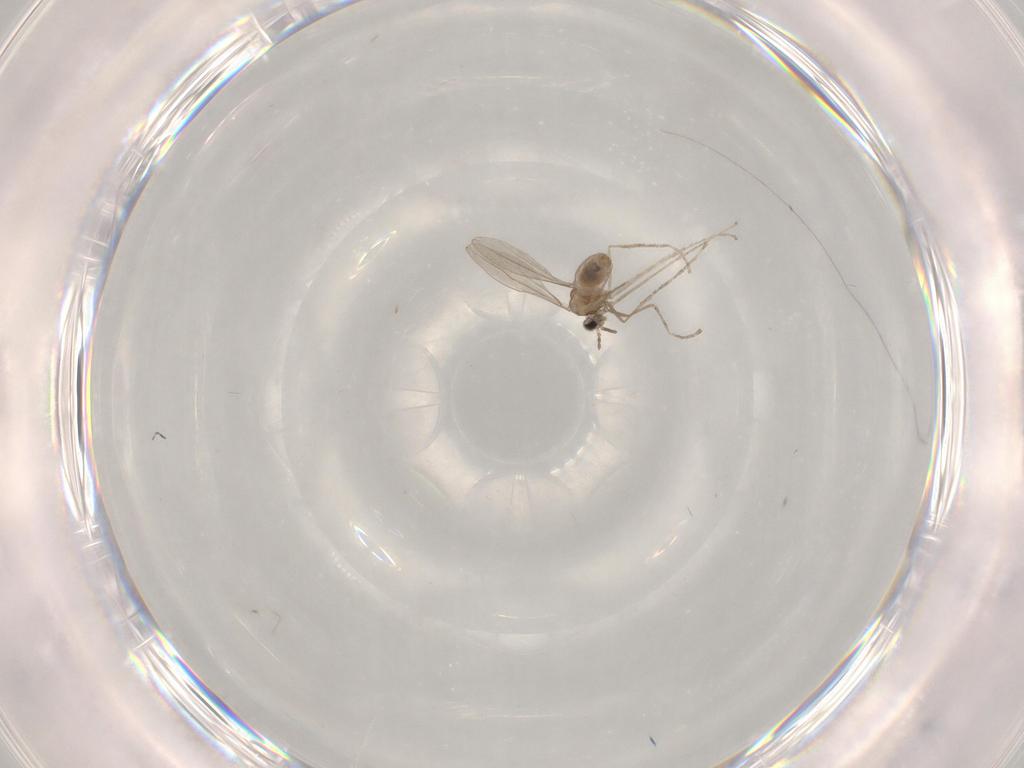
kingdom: Animalia
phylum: Arthropoda
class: Insecta
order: Diptera
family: Cecidomyiidae
